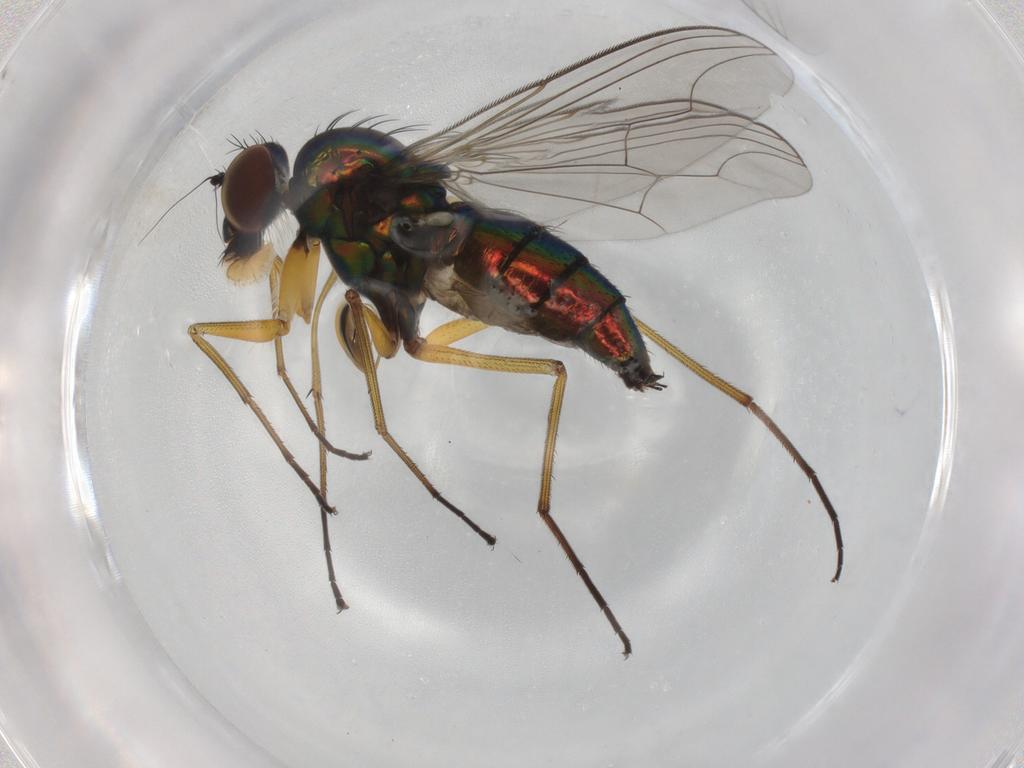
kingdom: Animalia
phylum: Arthropoda
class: Insecta
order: Diptera
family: Dolichopodidae
